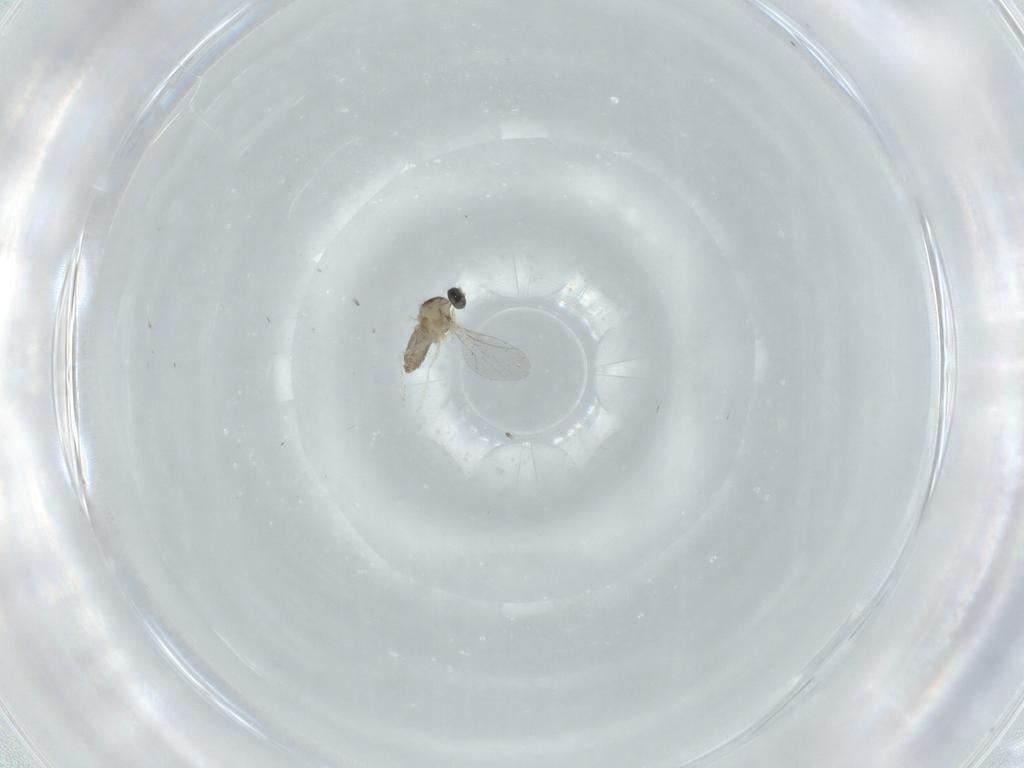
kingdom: Animalia
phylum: Arthropoda
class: Insecta
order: Diptera
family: Cecidomyiidae
